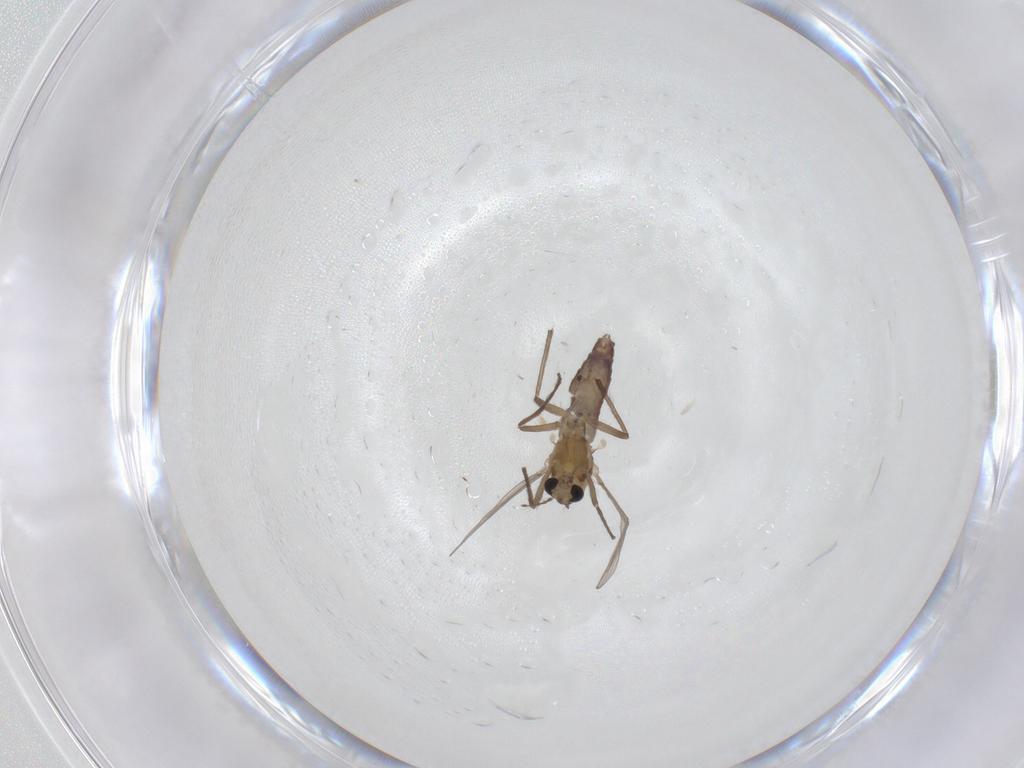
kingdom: Animalia
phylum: Arthropoda
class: Insecta
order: Diptera
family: Chironomidae
